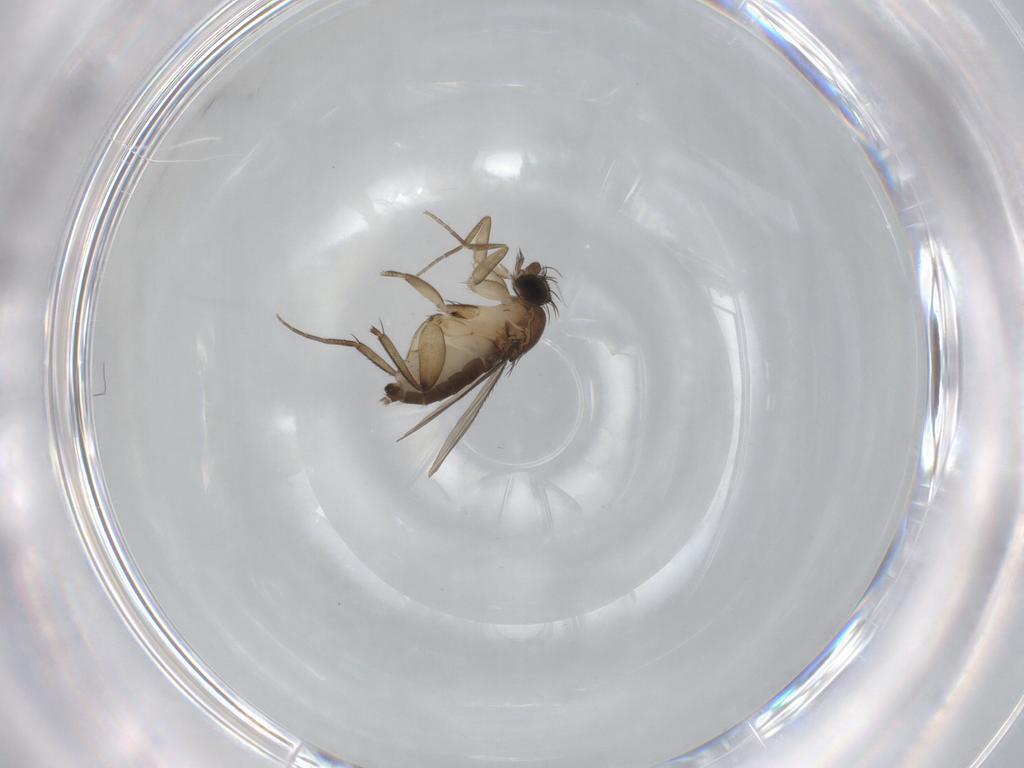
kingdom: Animalia
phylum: Arthropoda
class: Insecta
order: Diptera
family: Phoridae
